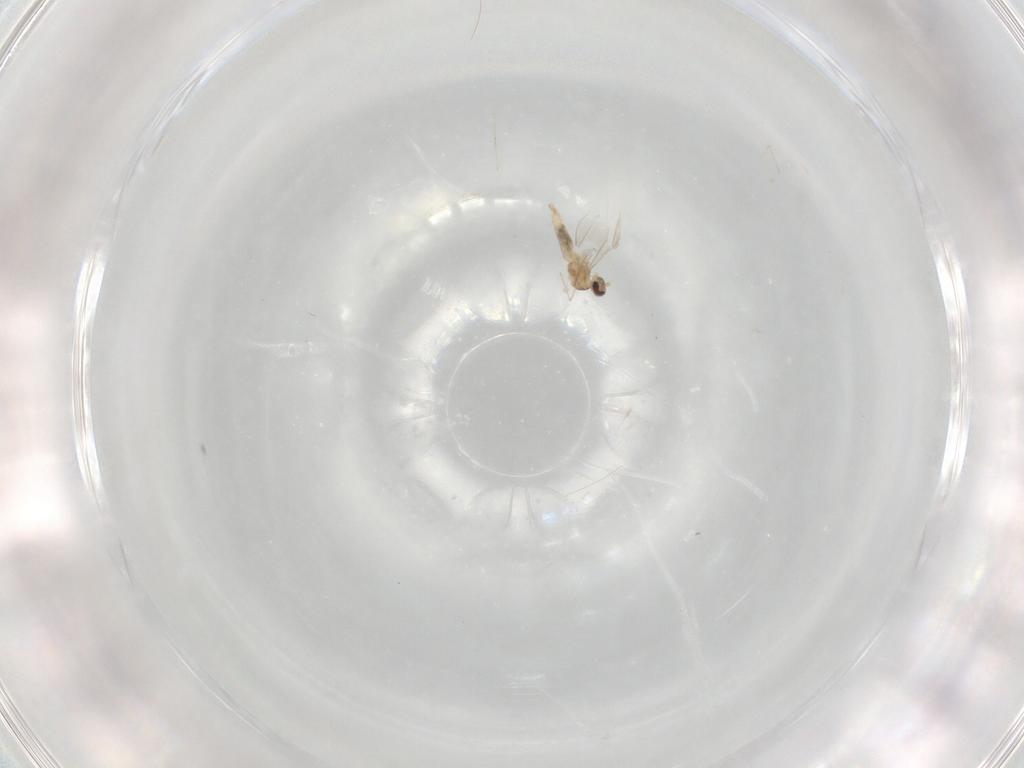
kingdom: Animalia
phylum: Arthropoda
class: Insecta
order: Diptera
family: Cecidomyiidae
